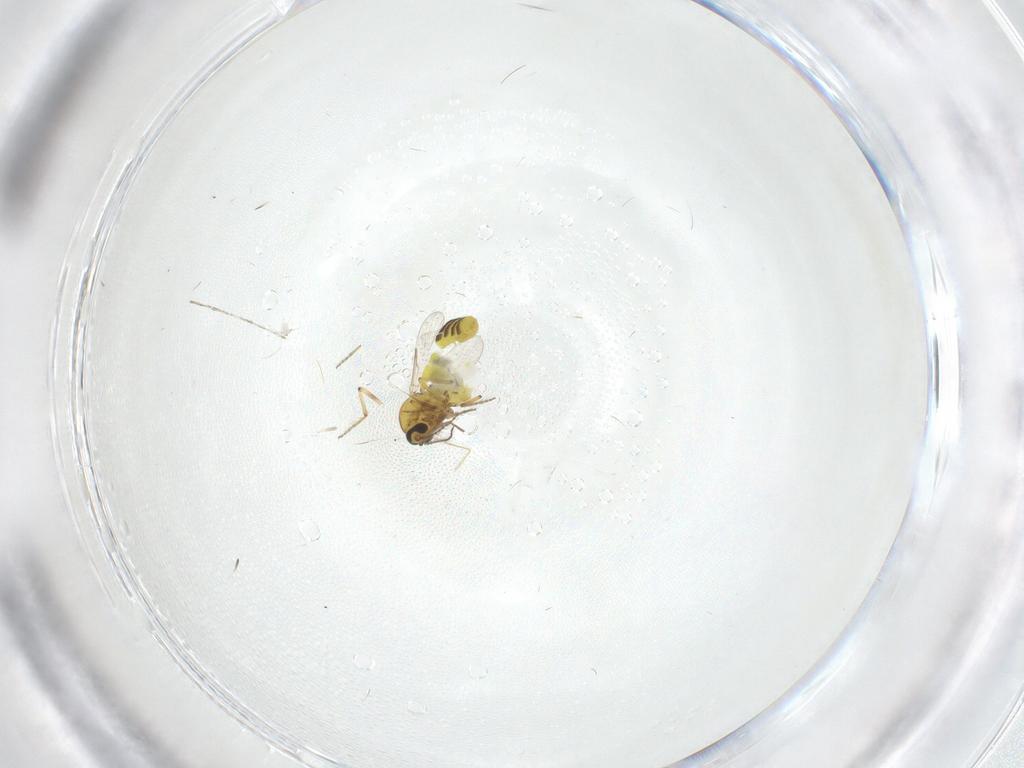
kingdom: Animalia
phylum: Arthropoda
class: Insecta
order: Diptera
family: Ceratopogonidae
